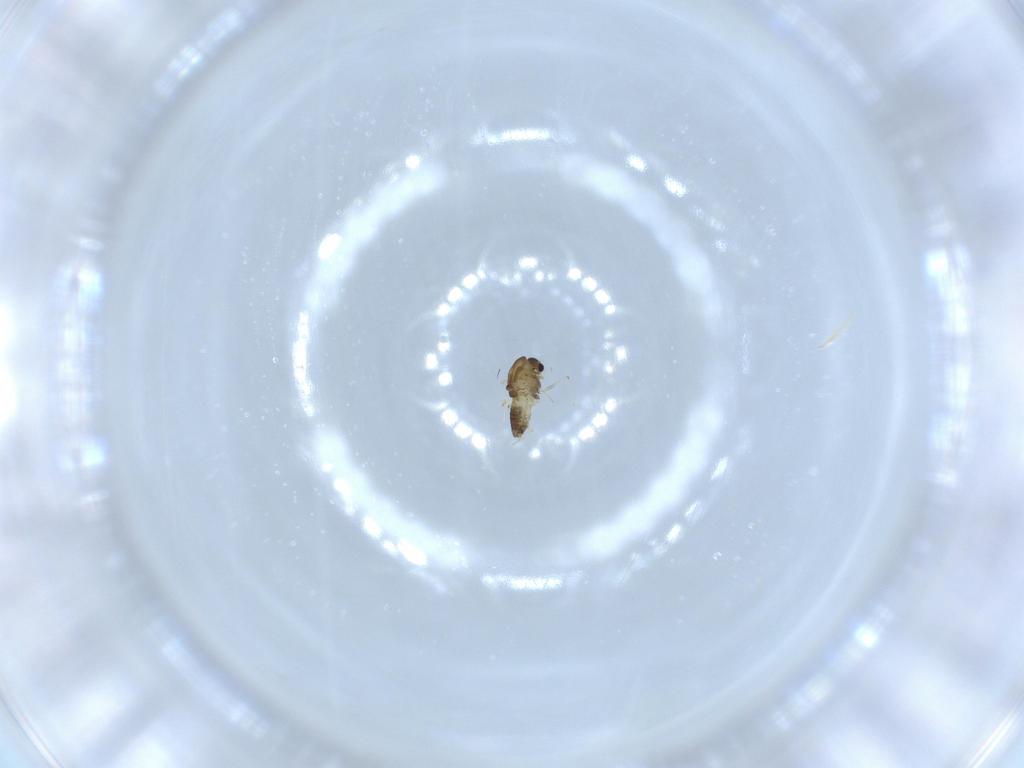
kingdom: Animalia
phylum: Arthropoda
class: Insecta
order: Diptera
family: Chironomidae
